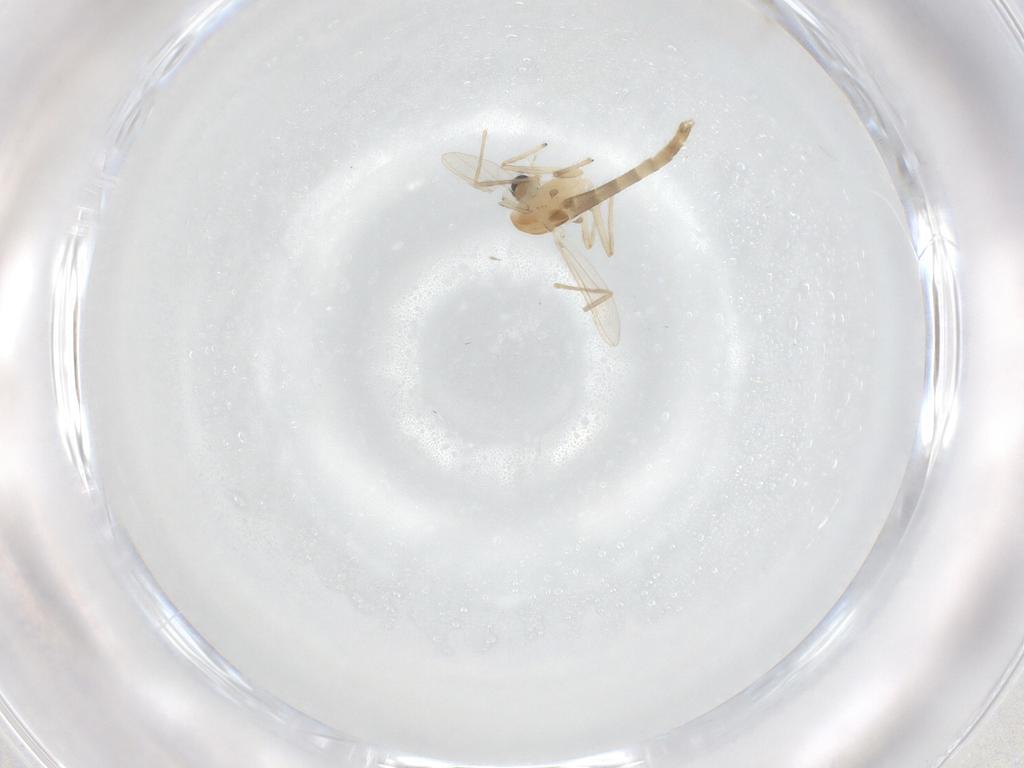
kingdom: Animalia
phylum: Arthropoda
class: Insecta
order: Diptera
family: Chironomidae
